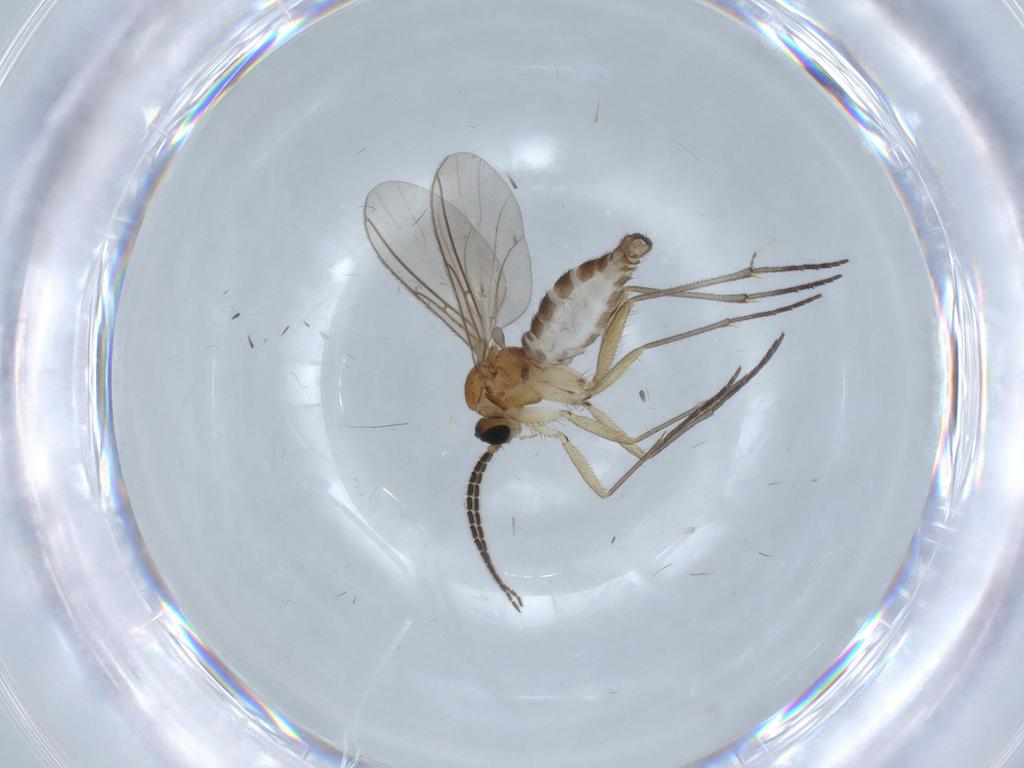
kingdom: Animalia
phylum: Arthropoda
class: Insecta
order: Diptera
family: Sciaridae
